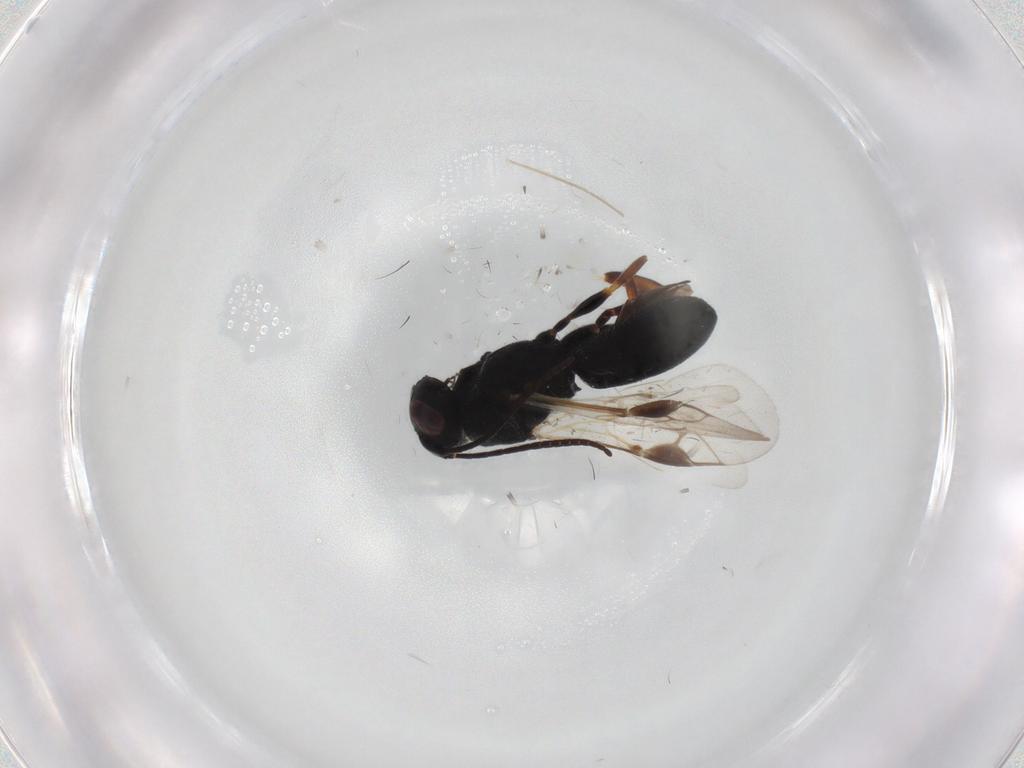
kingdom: Animalia
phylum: Arthropoda
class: Insecta
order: Hymenoptera
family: Braconidae
